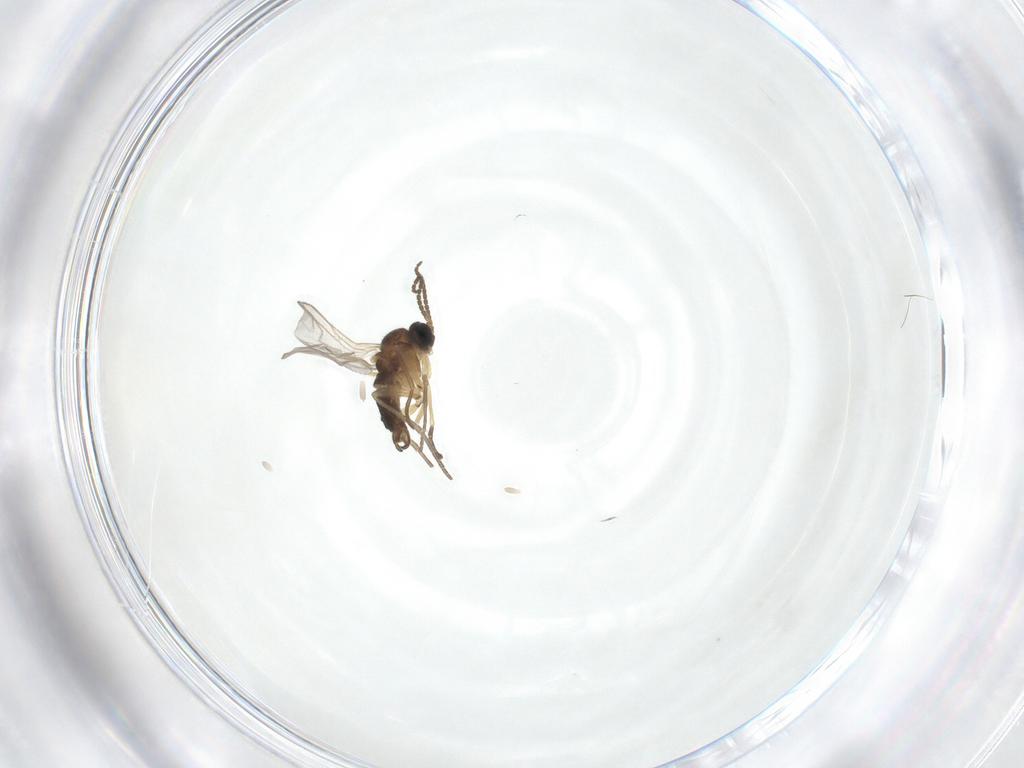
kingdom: Animalia
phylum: Arthropoda
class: Insecta
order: Diptera
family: Sciaridae
